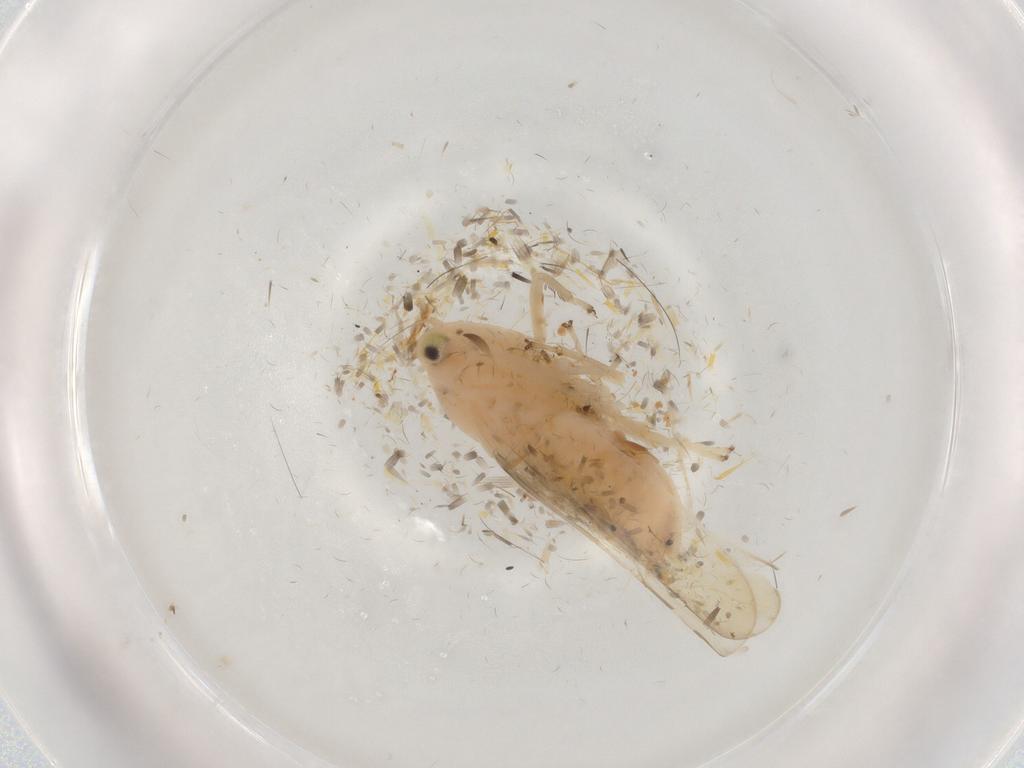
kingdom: Animalia
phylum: Arthropoda
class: Insecta
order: Hemiptera
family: Cicadellidae
